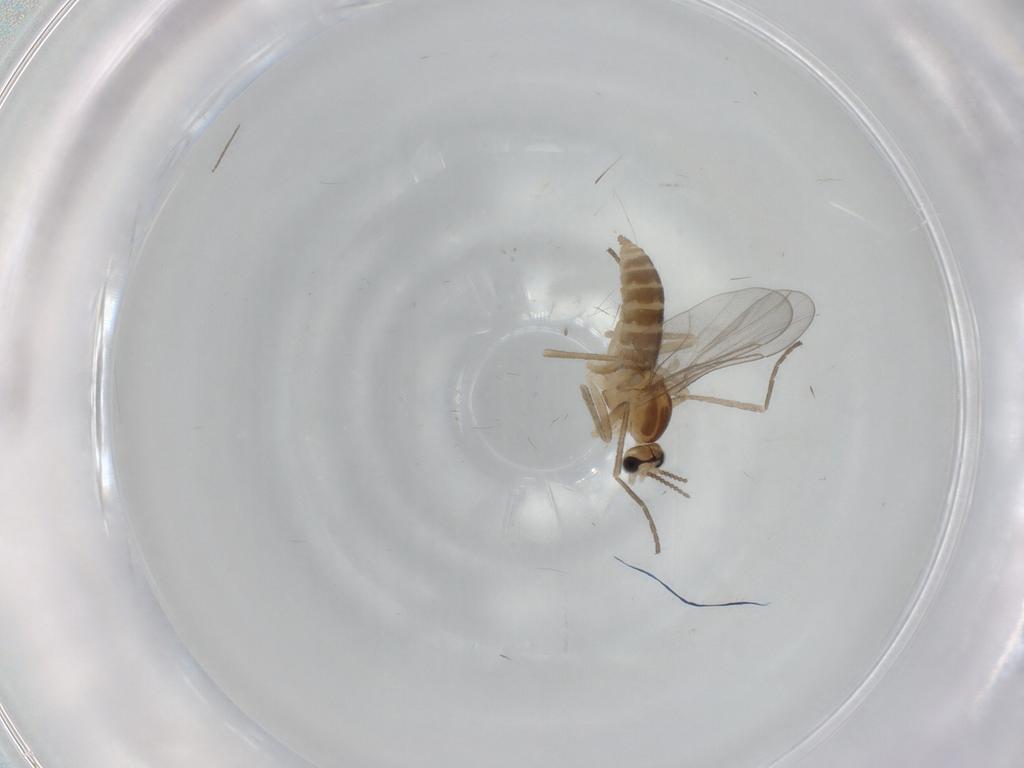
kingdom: Animalia
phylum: Arthropoda
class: Insecta
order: Diptera
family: Cecidomyiidae
